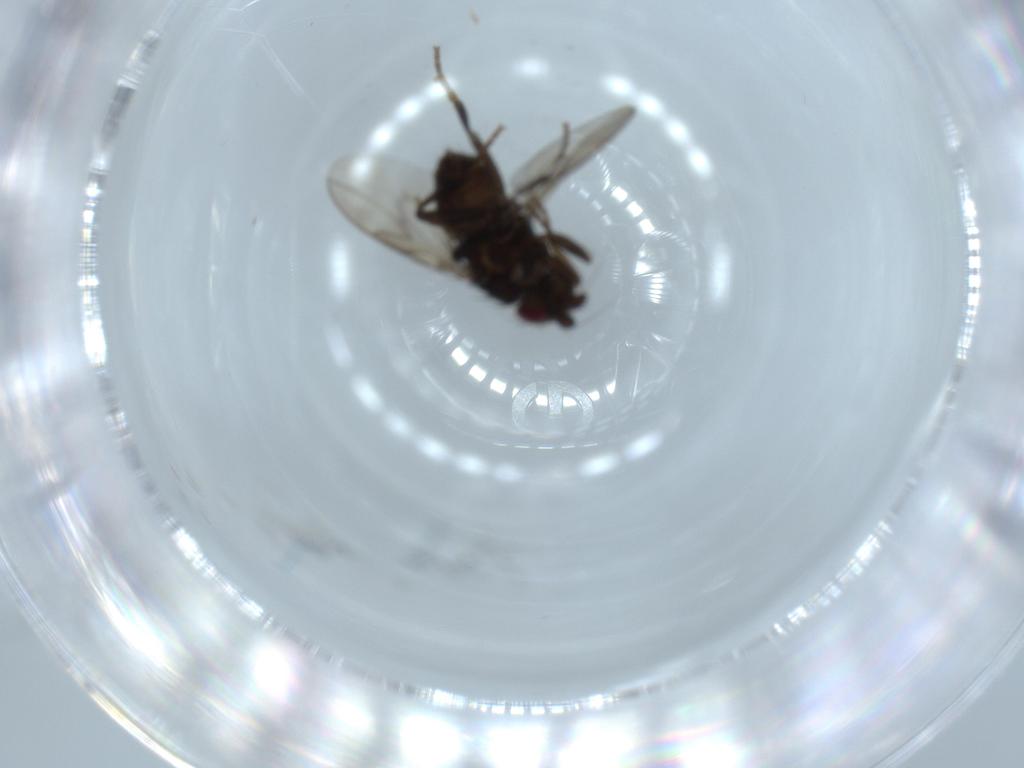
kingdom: Animalia
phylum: Arthropoda
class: Insecta
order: Diptera
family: Sphaeroceridae
